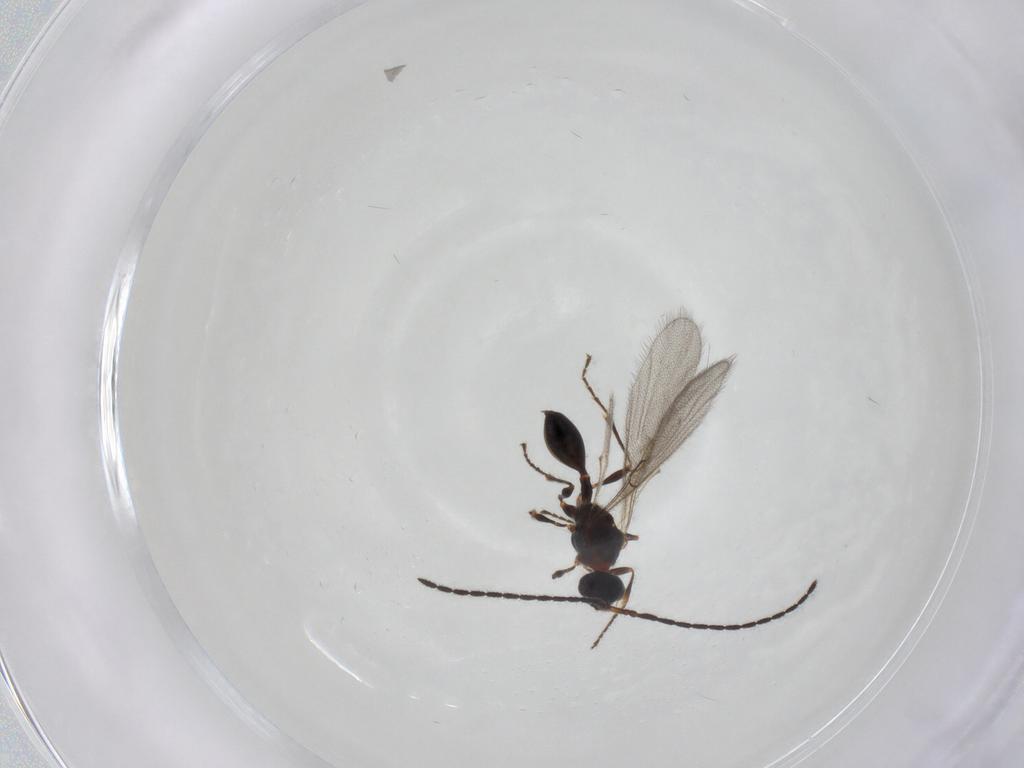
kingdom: Animalia
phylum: Arthropoda
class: Insecta
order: Hymenoptera
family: Diapriidae
